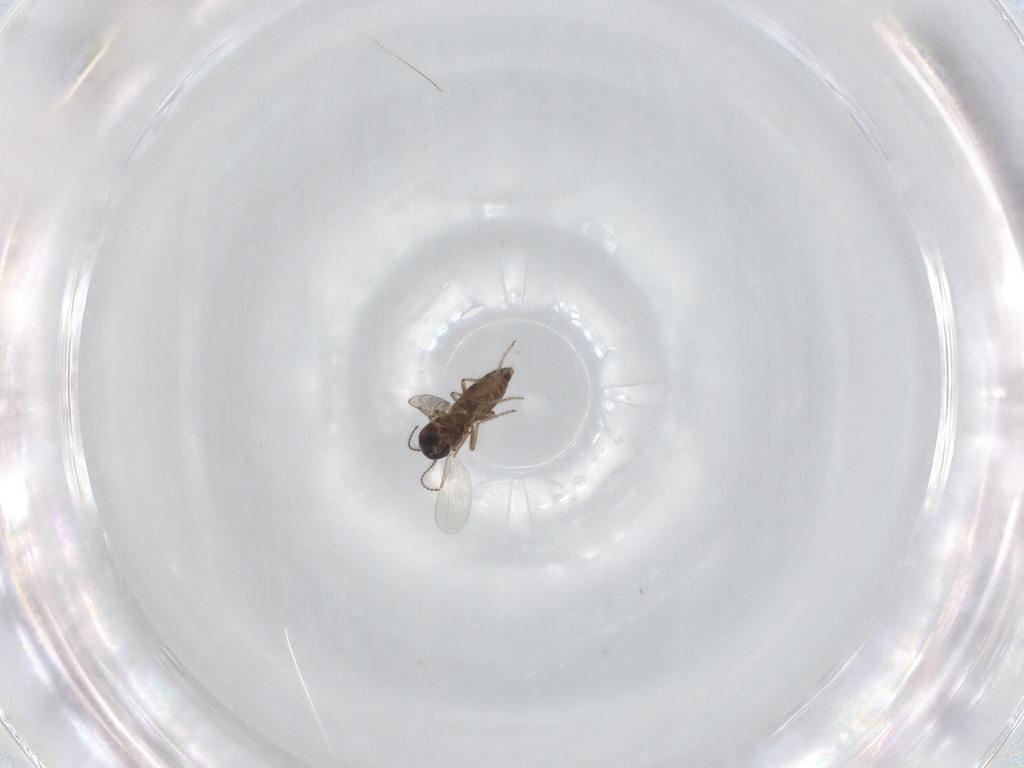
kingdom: Animalia
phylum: Arthropoda
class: Insecta
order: Diptera
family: Ceratopogonidae
